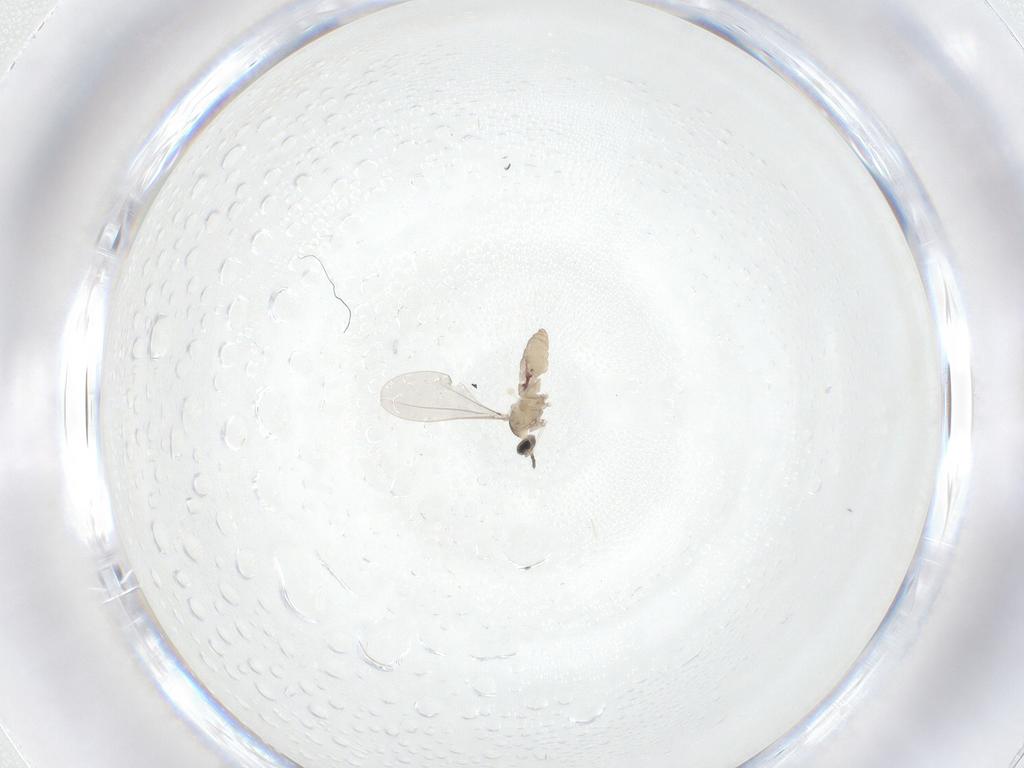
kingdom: Animalia
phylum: Arthropoda
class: Insecta
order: Diptera
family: Cecidomyiidae
